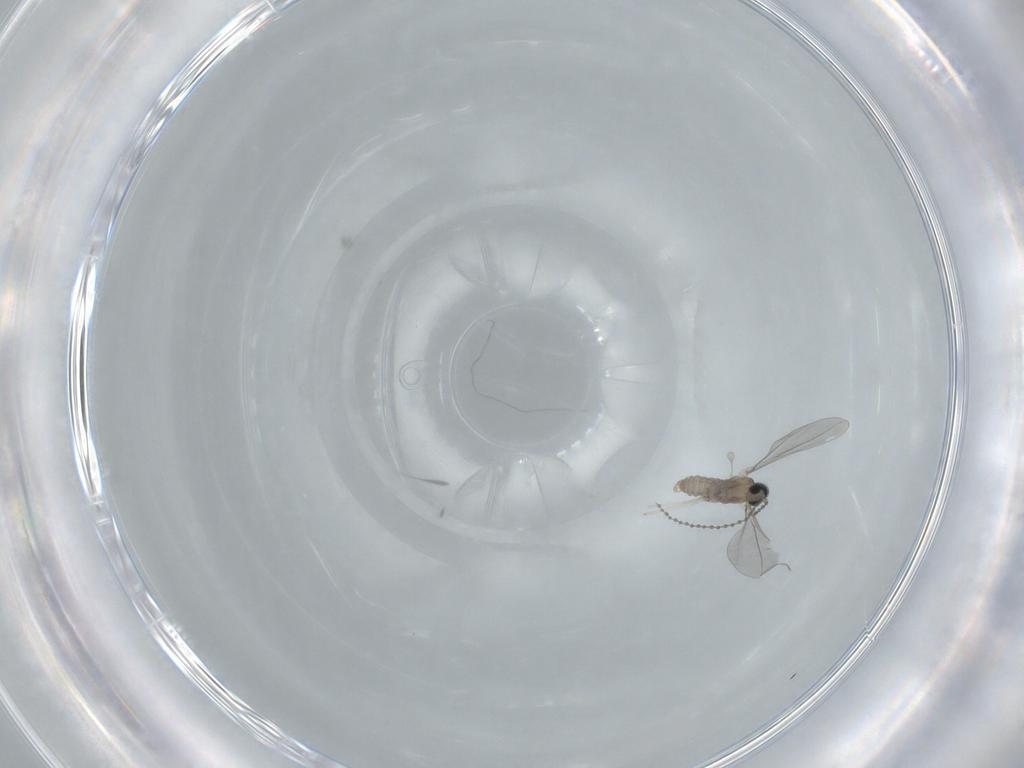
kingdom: Animalia
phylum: Arthropoda
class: Insecta
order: Diptera
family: Cecidomyiidae
